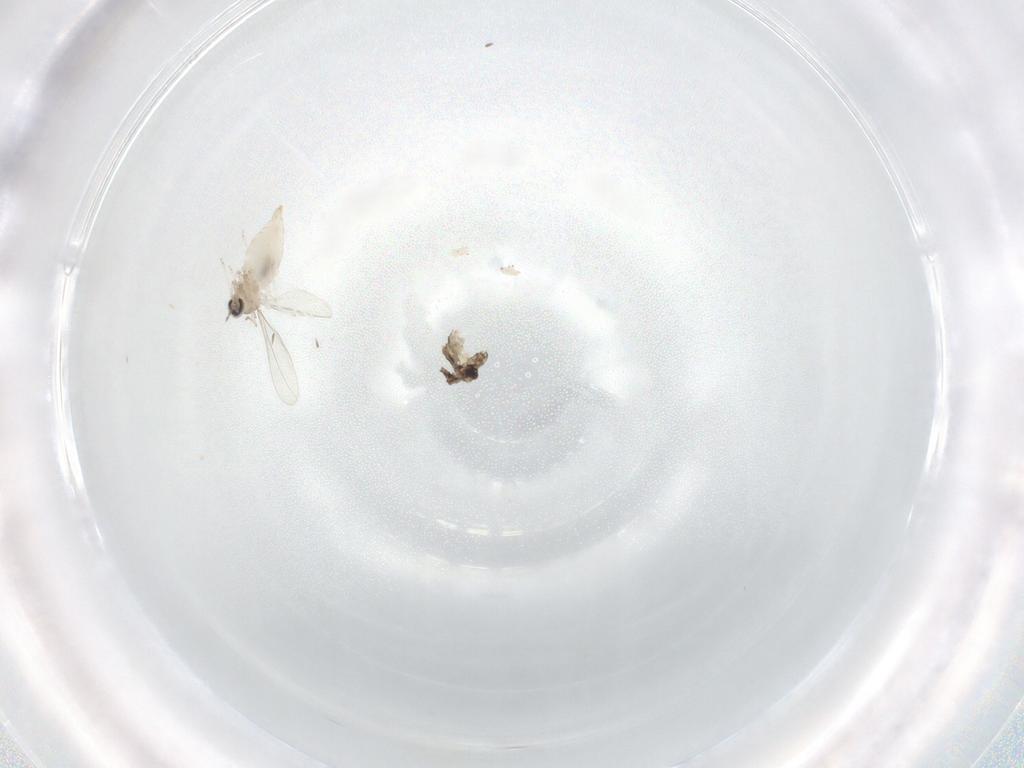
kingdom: Animalia
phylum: Arthropoda
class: Insecta
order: Diptera
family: Cecidomyiidae
